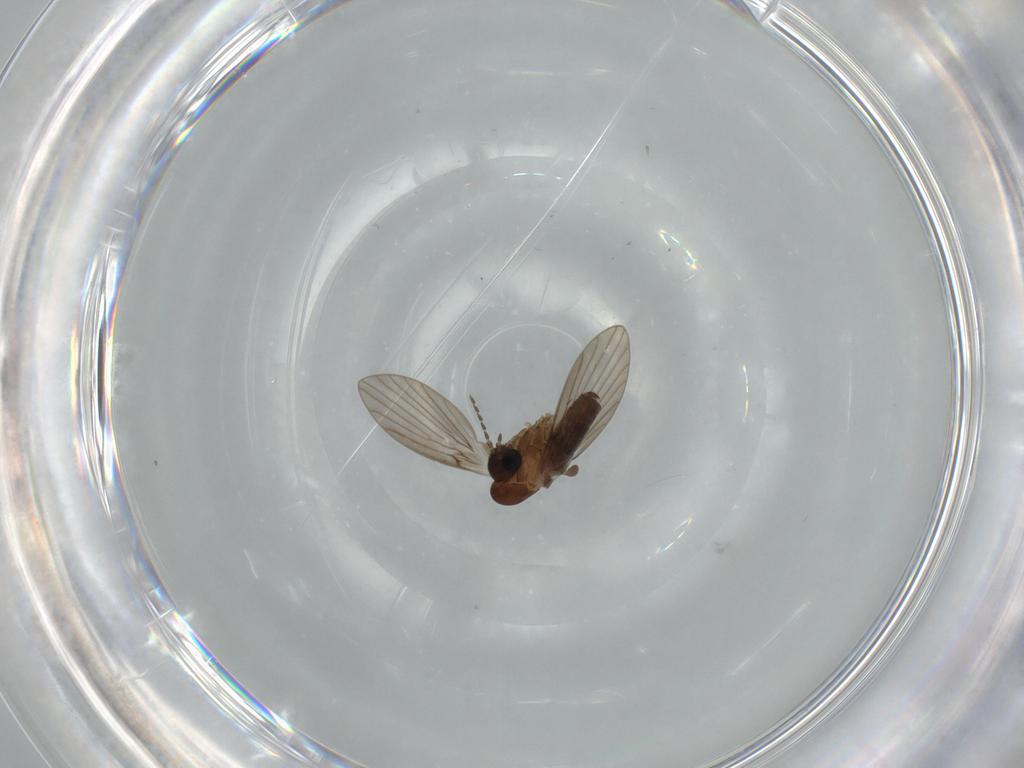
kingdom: Animalia
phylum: Arthropoda
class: Insecta
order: Diptera
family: Psychodidae
